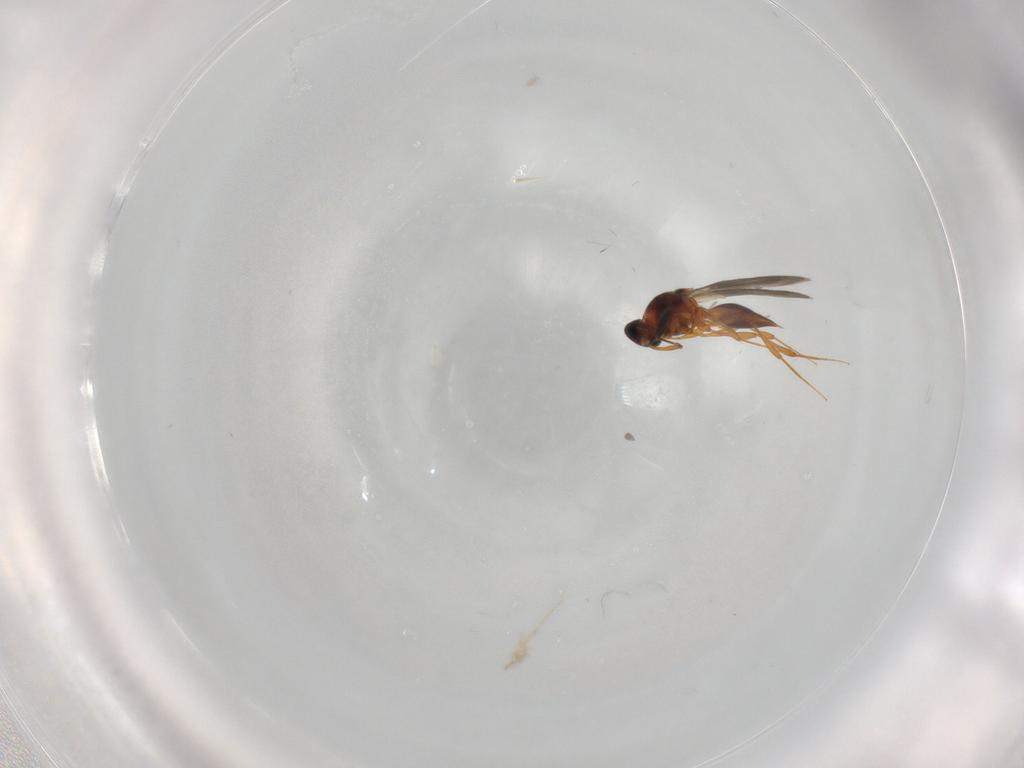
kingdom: Animalia
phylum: Arthropoda
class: Insecta
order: Hymenoptera
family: Platygastridae
